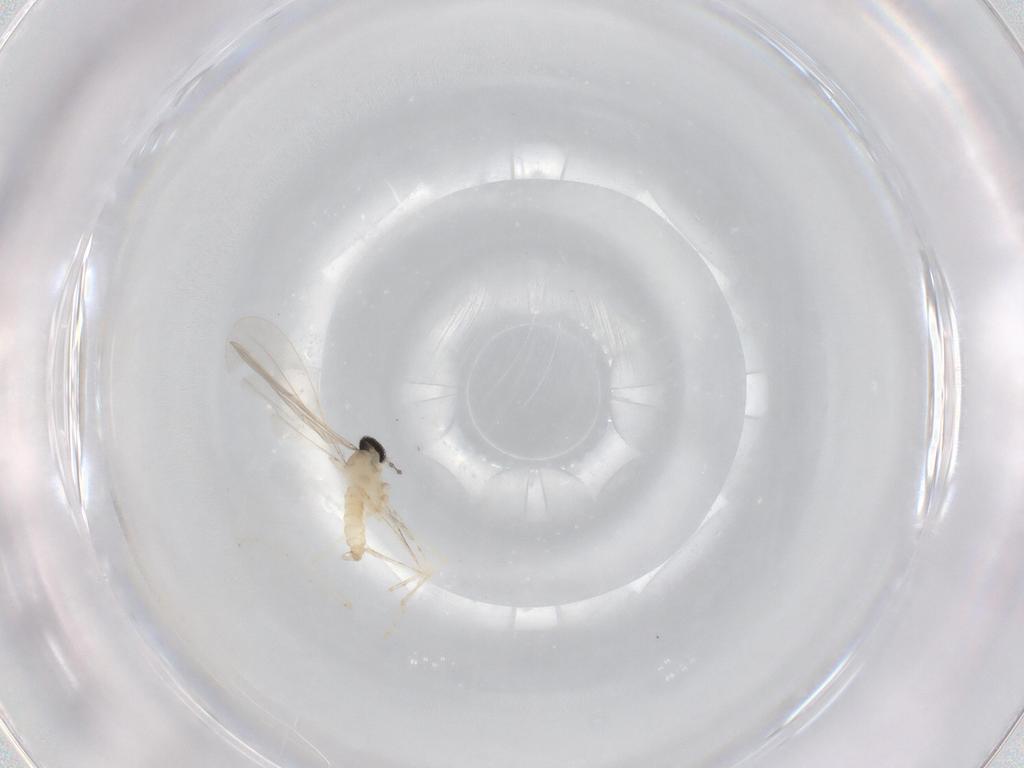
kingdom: Animalia
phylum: Arthropoda
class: Insecta
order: Diptera
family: Cecidomyiidae
